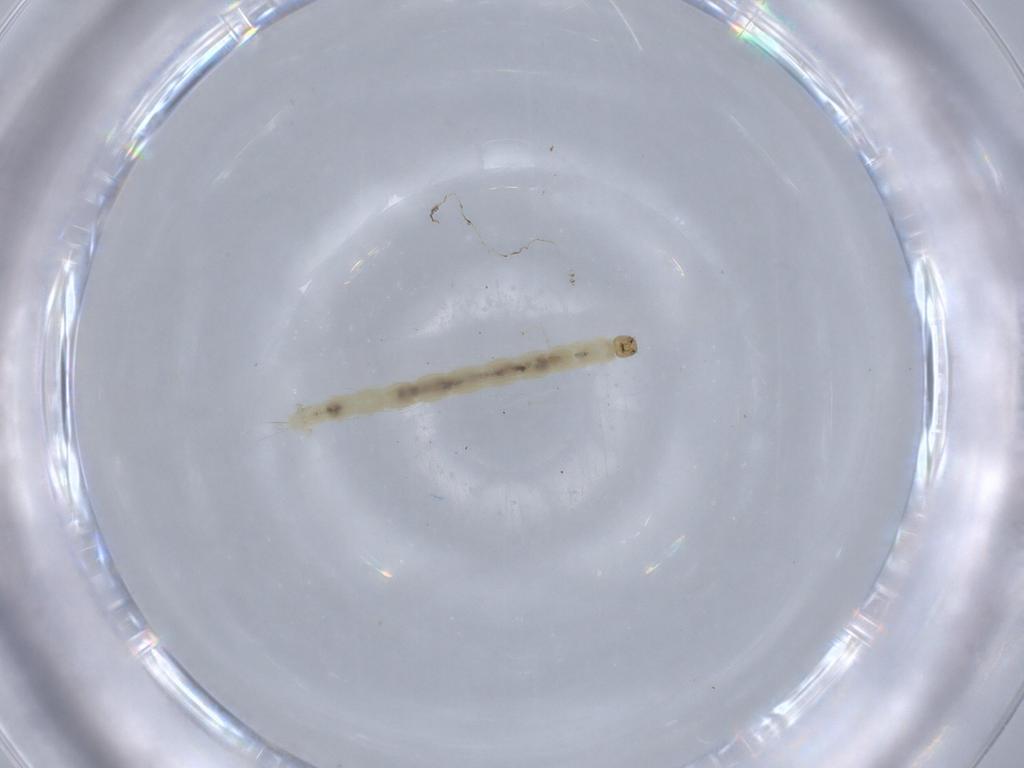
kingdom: Animalia
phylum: Arthropoda
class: Insecta
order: Diptera
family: Chironomidae
